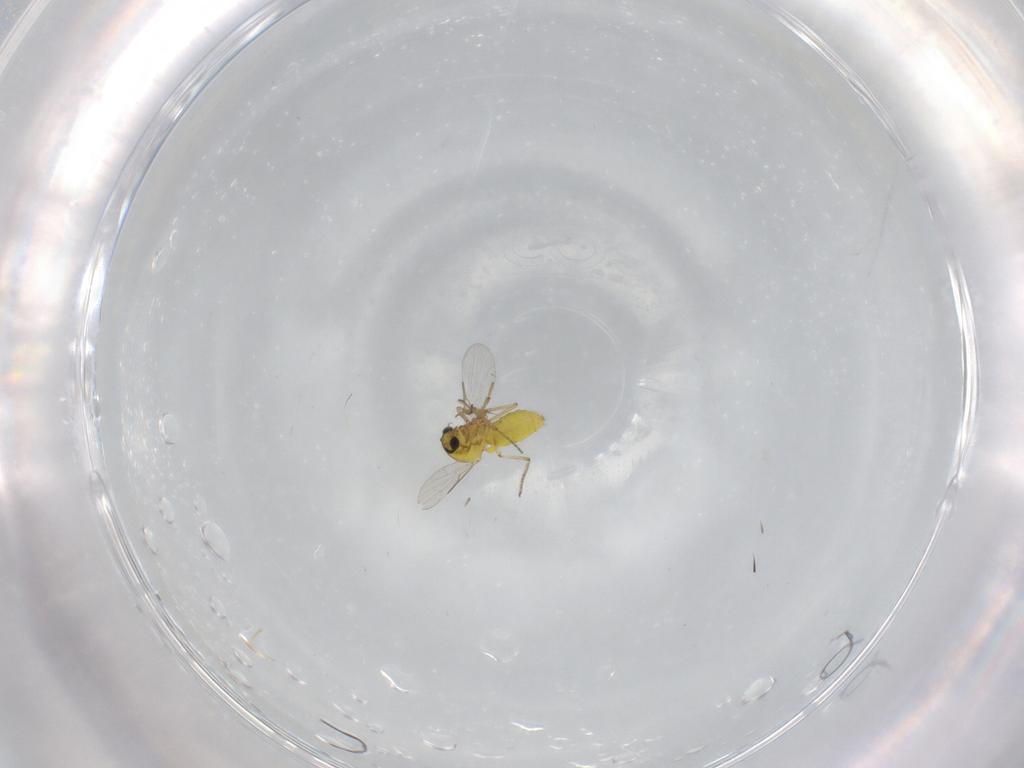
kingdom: Animalia
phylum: Arthropoda
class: Insecta
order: Diptera
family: Ceratopogonidae
